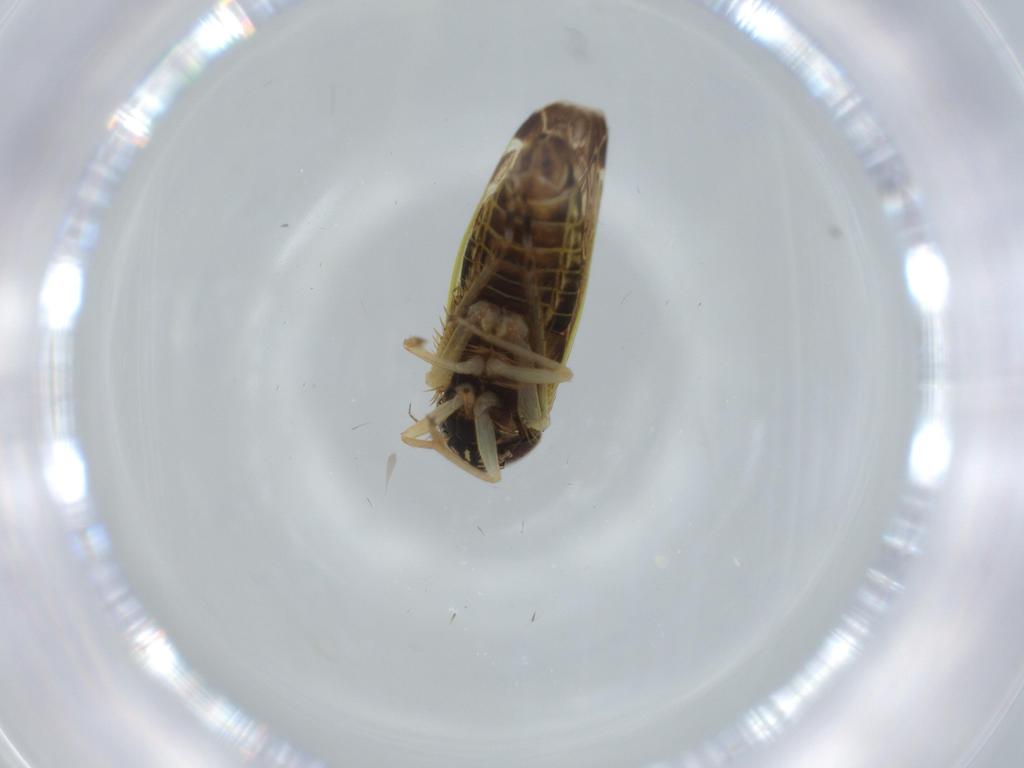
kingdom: Animalia
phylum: Arthropoda
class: Insecta
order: Hemiptera
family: Cicadellidae
